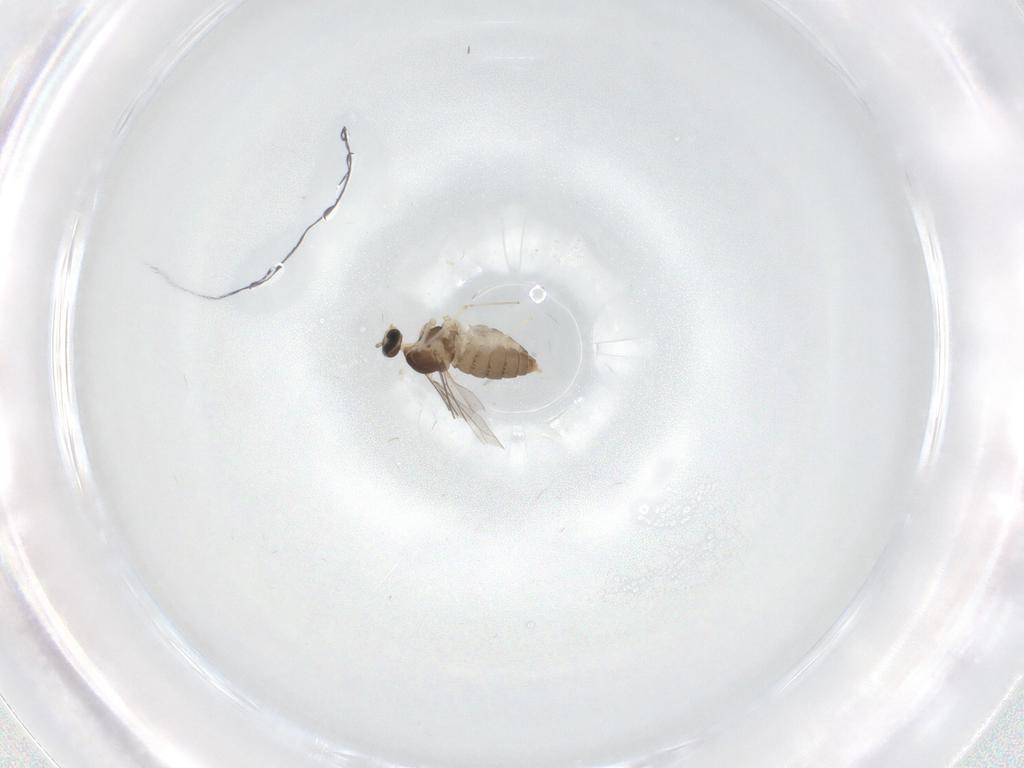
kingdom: Animalia
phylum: Arthropoda
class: Insecta
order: Diptera
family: Cecidomyiidae
